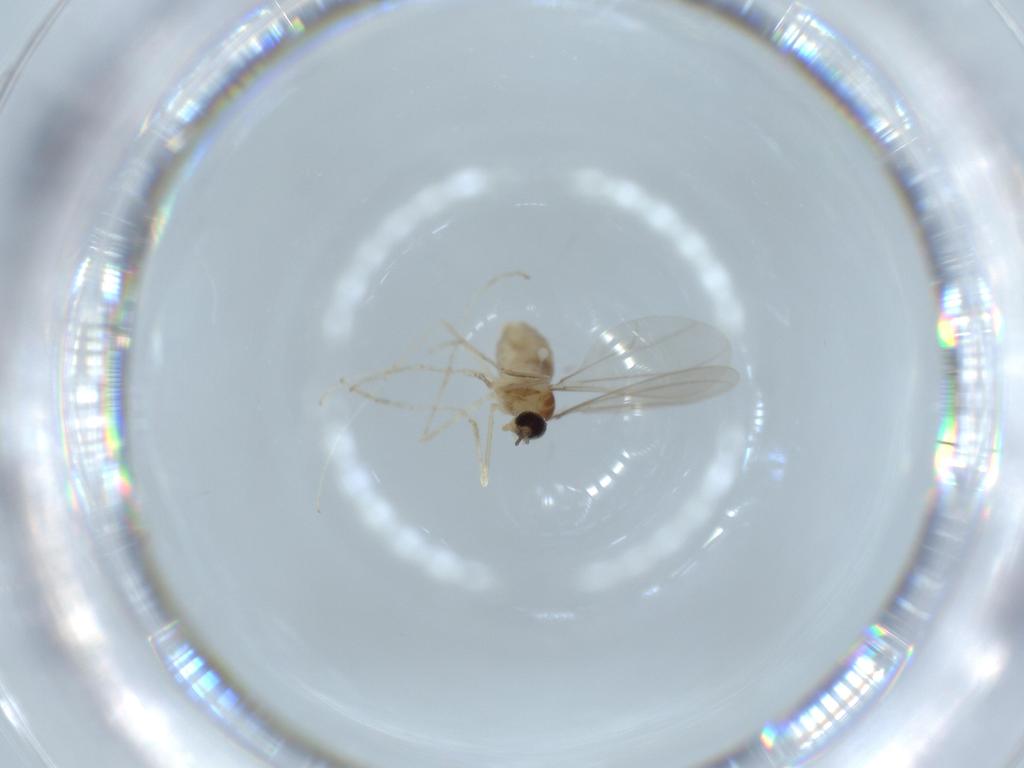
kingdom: Animalia
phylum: Arthropoda
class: Insecta
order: Diptera
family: Cecidomyiidae
